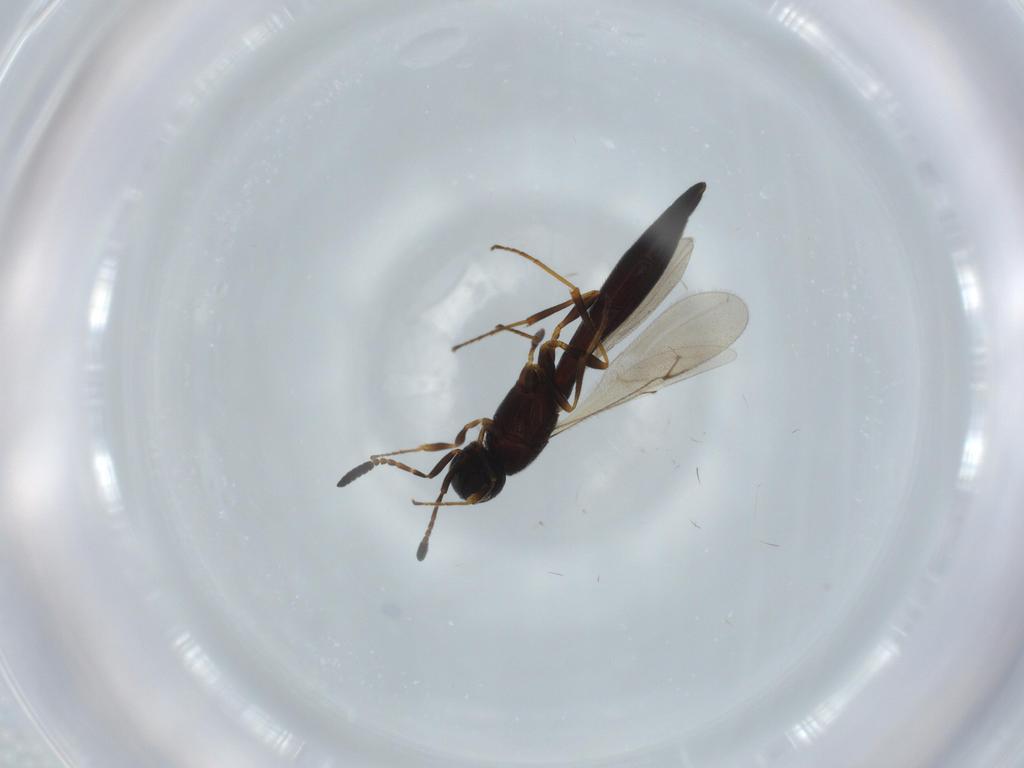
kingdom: Animalia
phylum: Arthropoda
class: Insecta
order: Hymenoptera
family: Scelionidae
